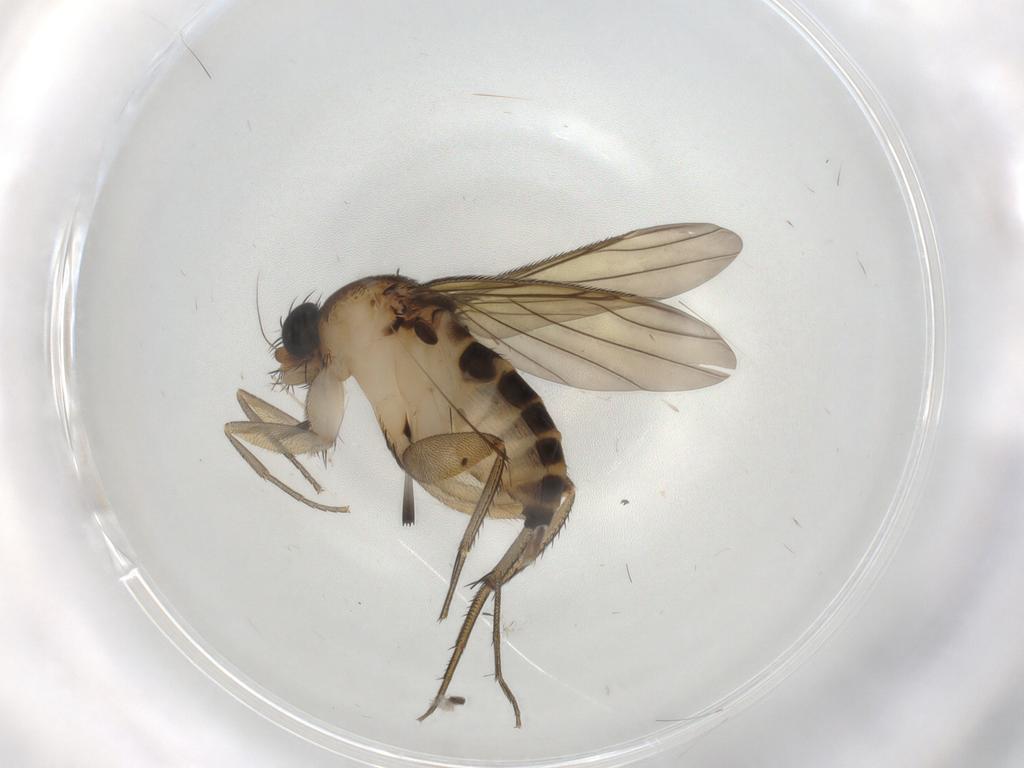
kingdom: Animalia
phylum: Arthropoda
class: Insecta
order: Diptera
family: Phoridae
